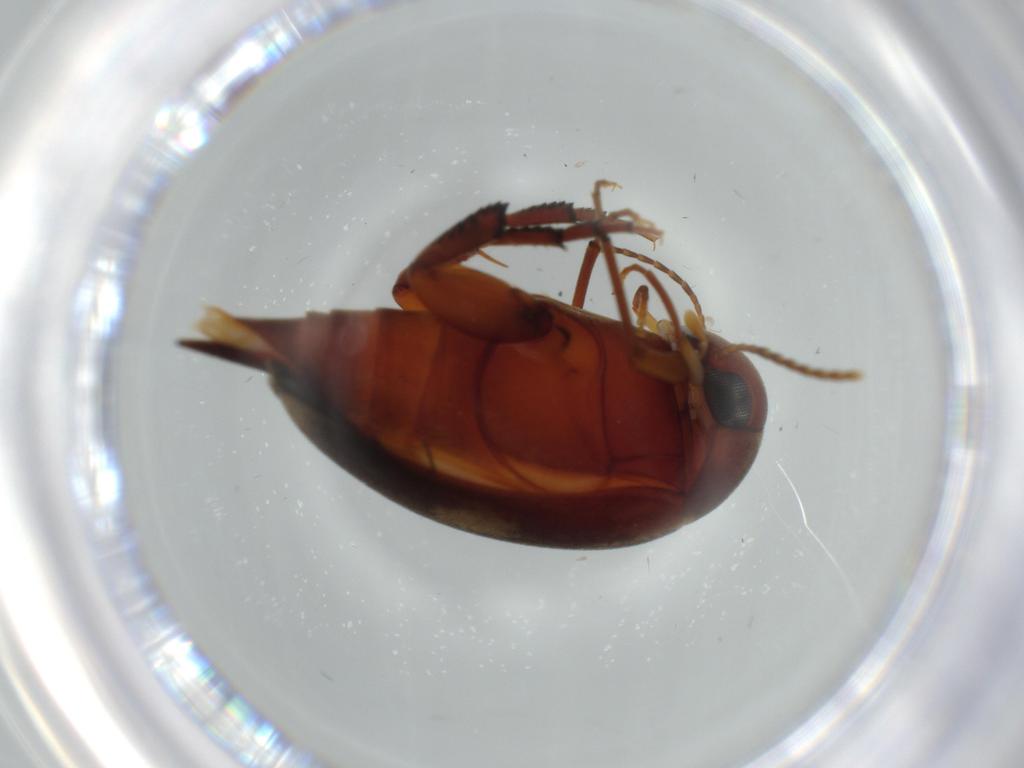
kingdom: Animalia
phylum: Arthropoda
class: Insecta
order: Coleoptera
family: Mordellidae
